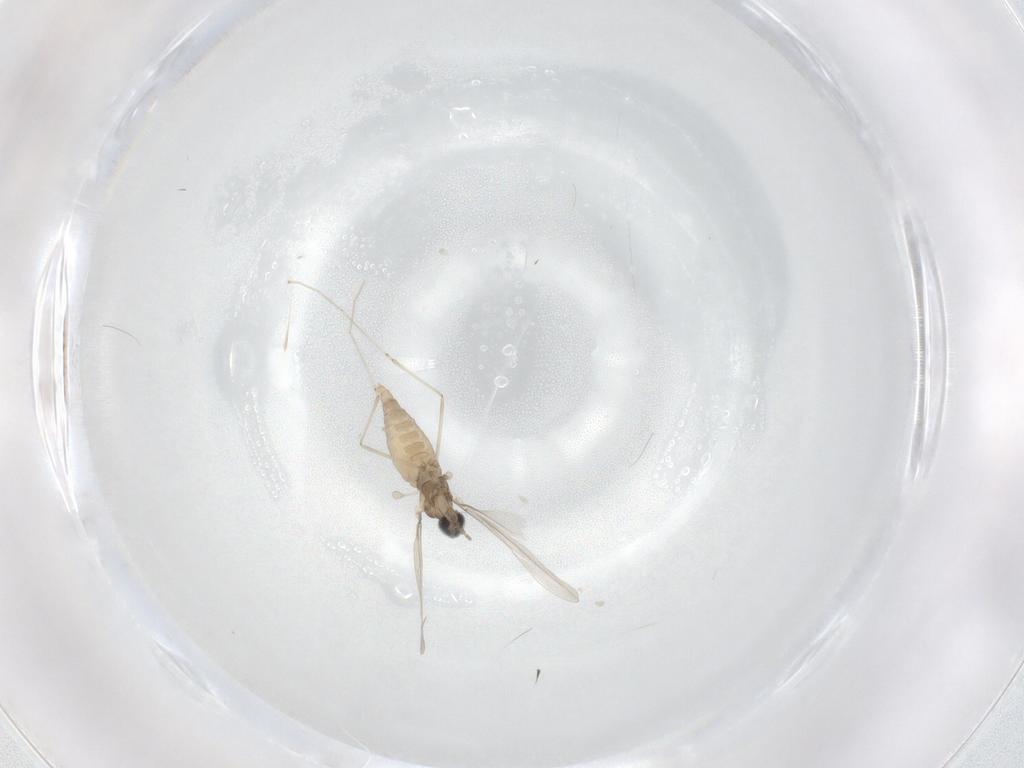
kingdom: Animalia
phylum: Arthropoda
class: Insecta
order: Diptera
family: Cecidomyiidae
